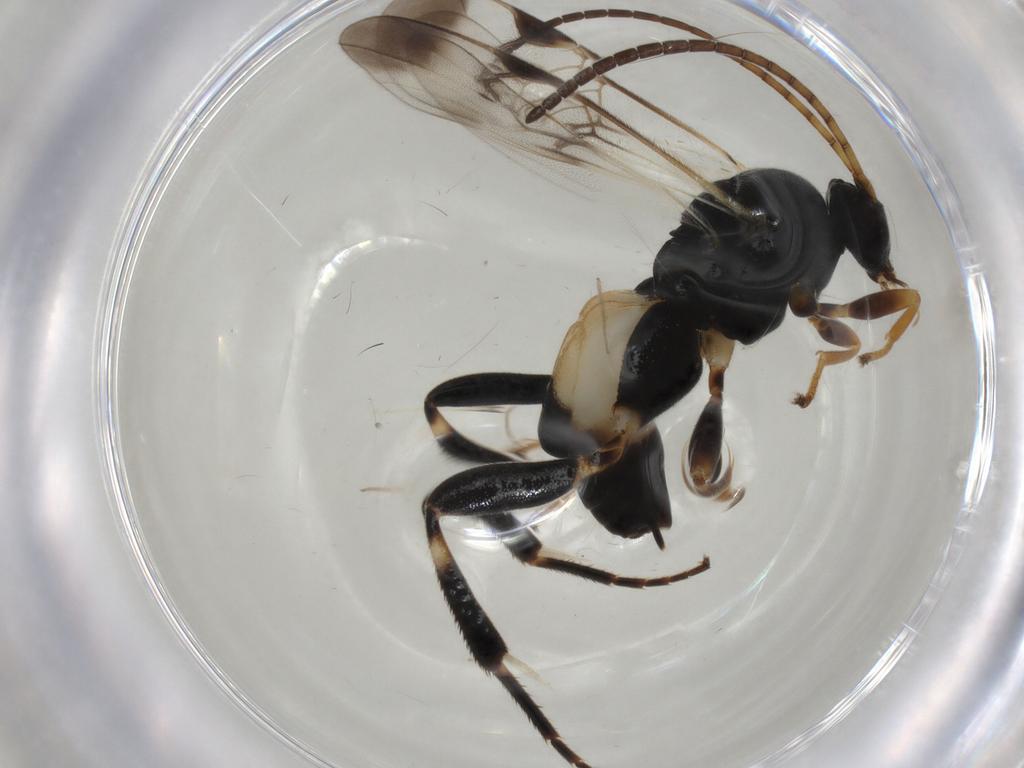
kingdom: Animalia
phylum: Arthropoda
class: Insecta
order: Hymenoptera
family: Braconidae
